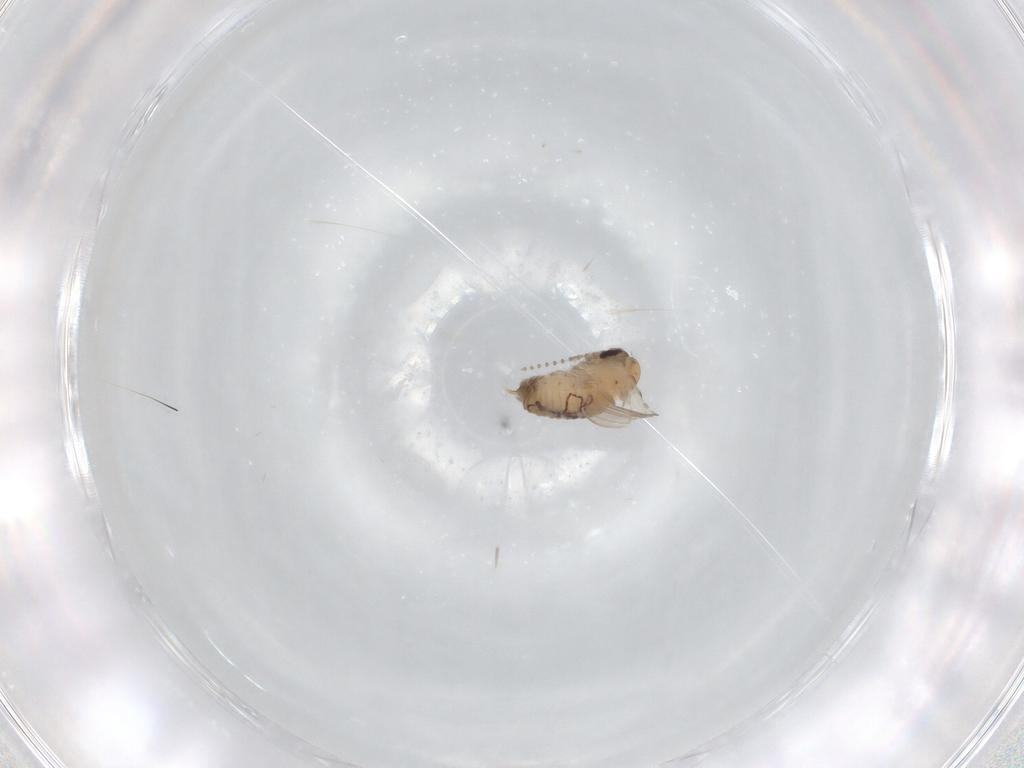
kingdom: Animalia
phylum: Arthropoda
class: Insecta
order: Diptera
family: Psychodidae
